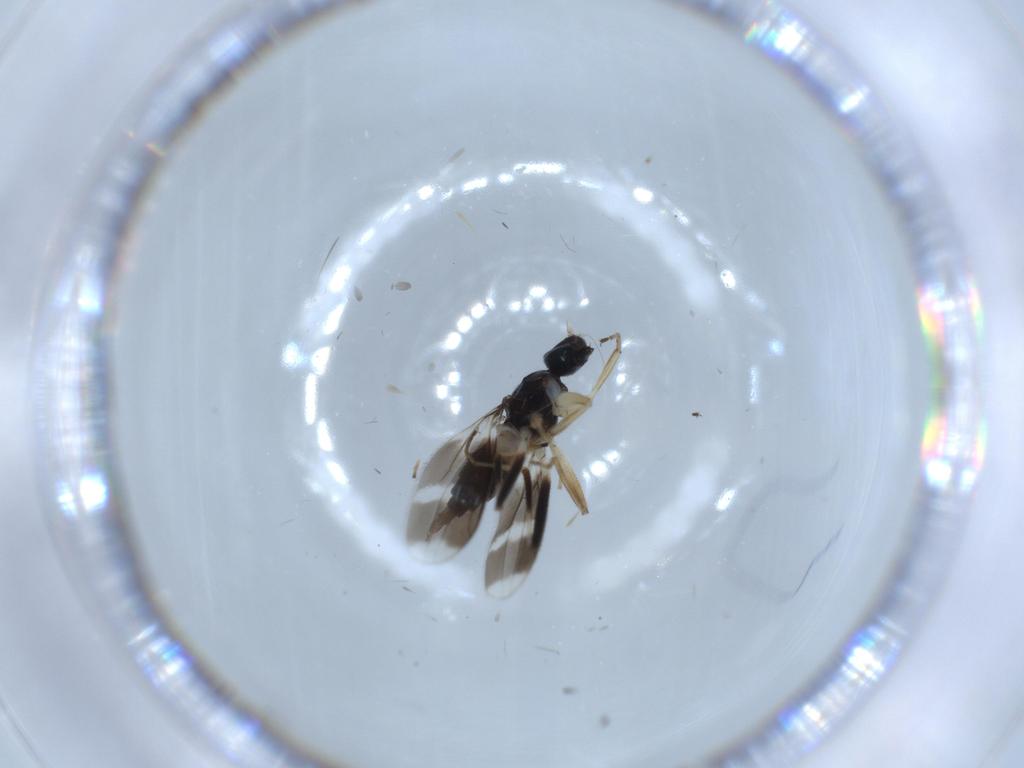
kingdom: Animalia
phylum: Arthropoda
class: Insecta
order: Diptera
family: Hybotidae
